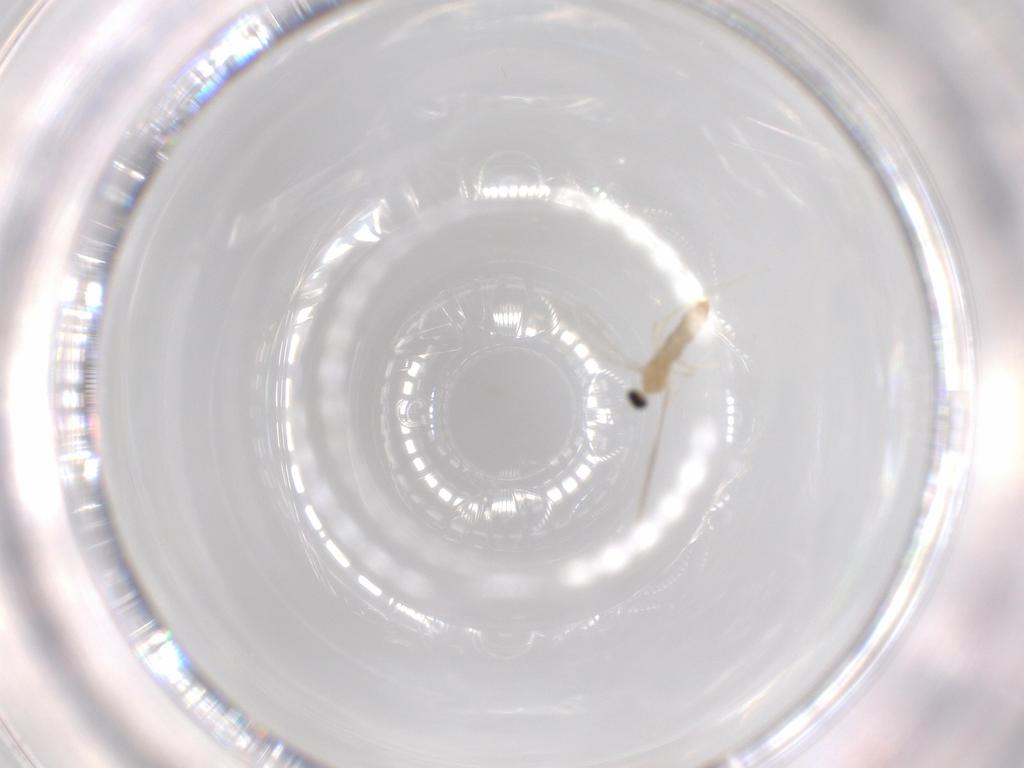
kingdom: Animalia
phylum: Arthropoda
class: Insecta
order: Diptera
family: Cecidomyiidae
